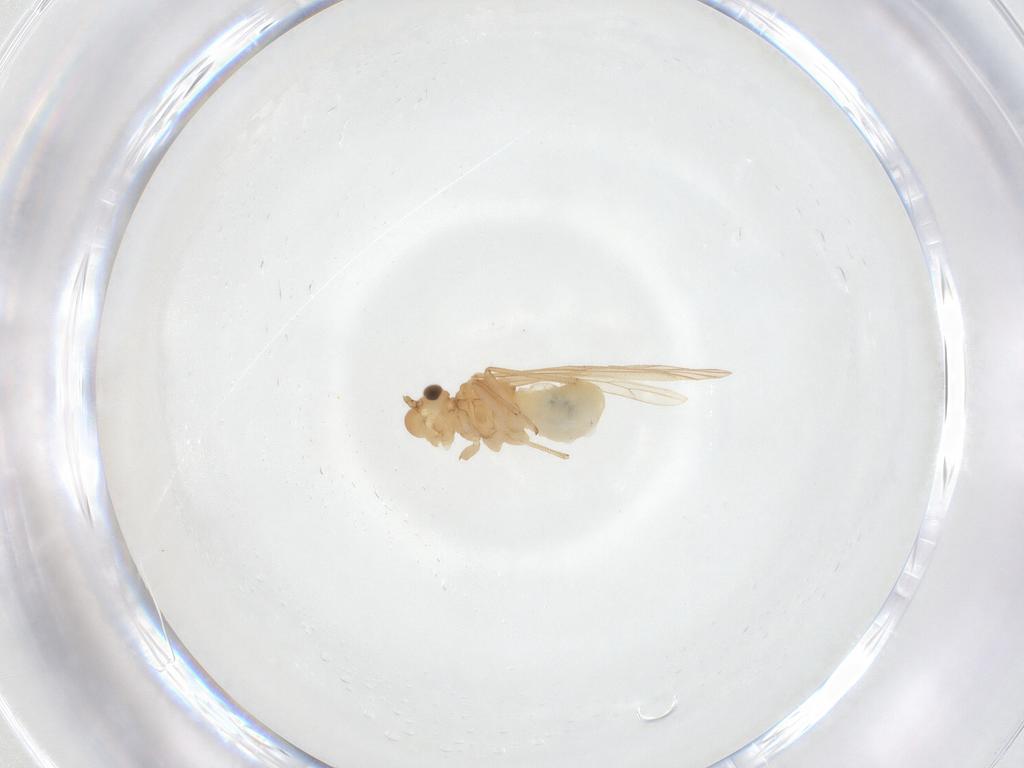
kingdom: Animalia
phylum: Arthropoda
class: Insecta
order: Psocodea
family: Caeciliusidae
